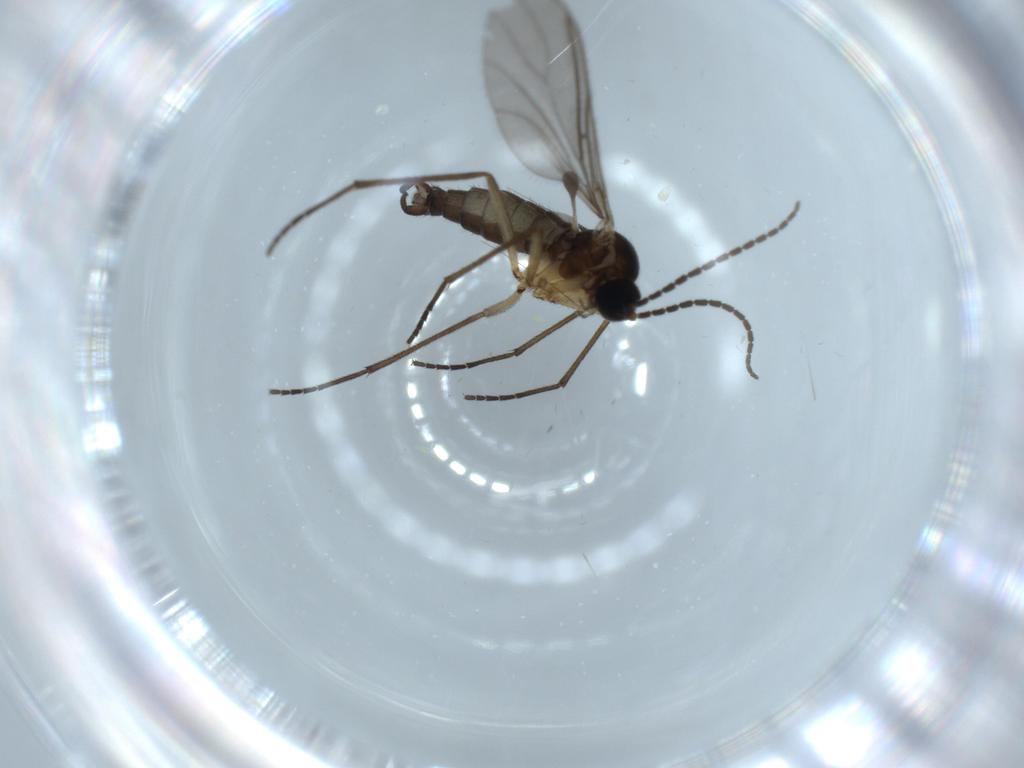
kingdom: Animalia
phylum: Arthropoda
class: Insecta
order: Diptera
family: Sciaridae
